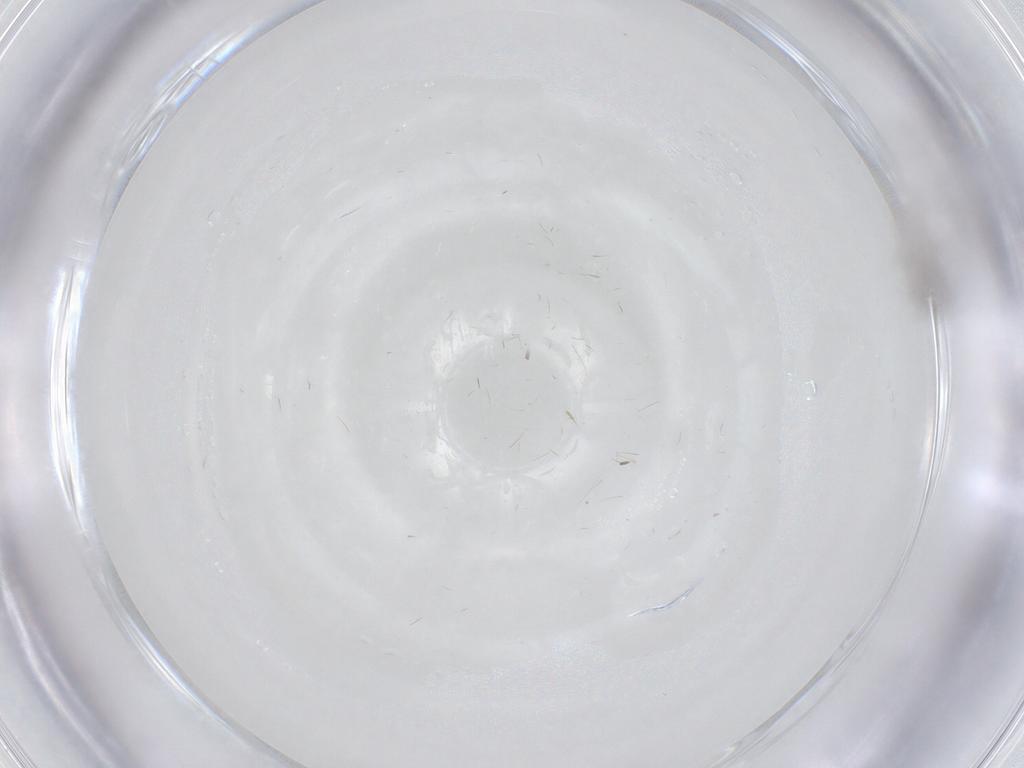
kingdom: Animalia
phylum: Arthropoda
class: Insecta
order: Diptera
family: Cecidomyiidae
